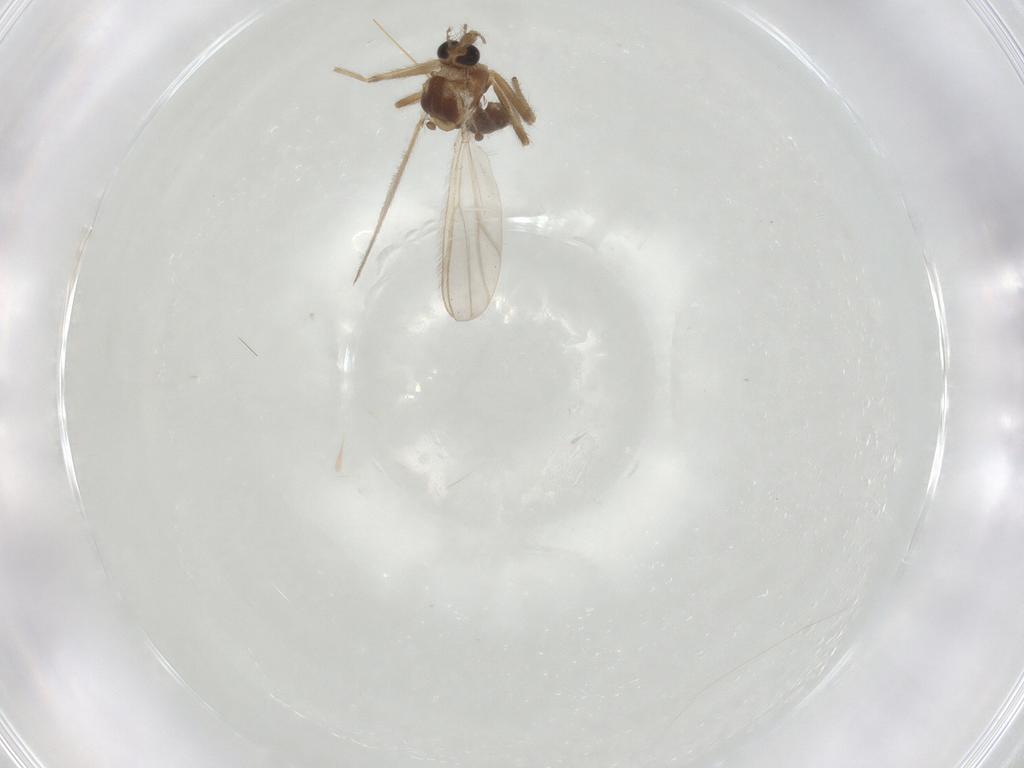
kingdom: Animalia
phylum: Arthropoda
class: Insecta
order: Diptera
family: Chironomidae
